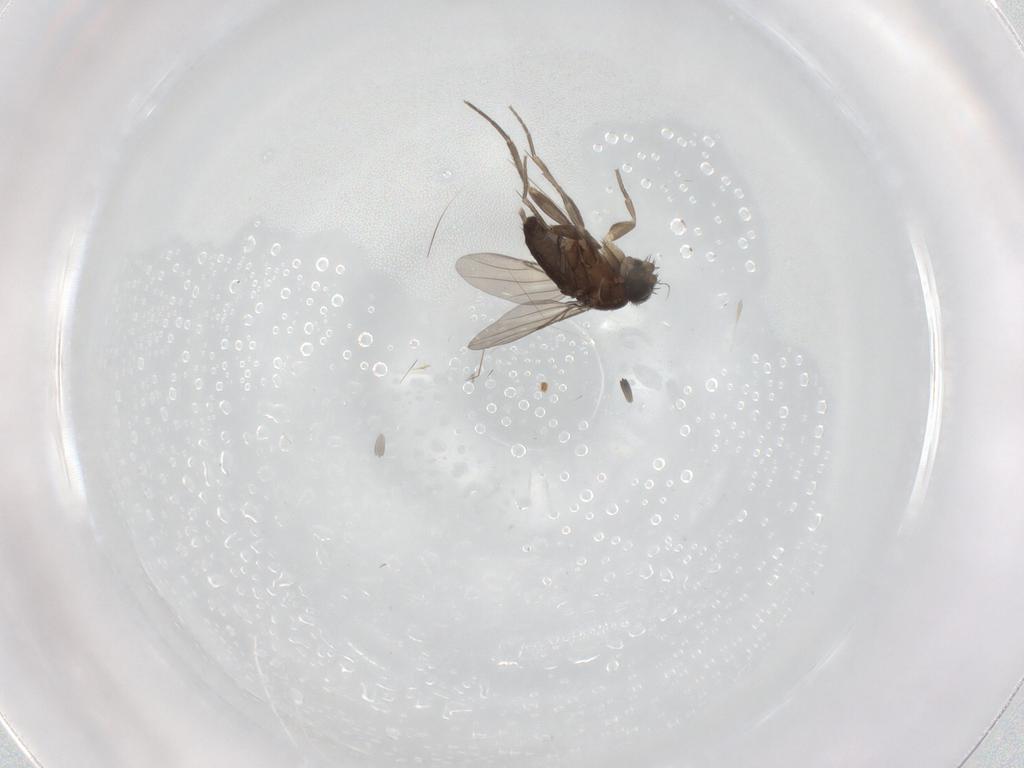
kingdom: Animalia
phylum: Arthropoda
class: Insecta
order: Diptera
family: Phoridae
